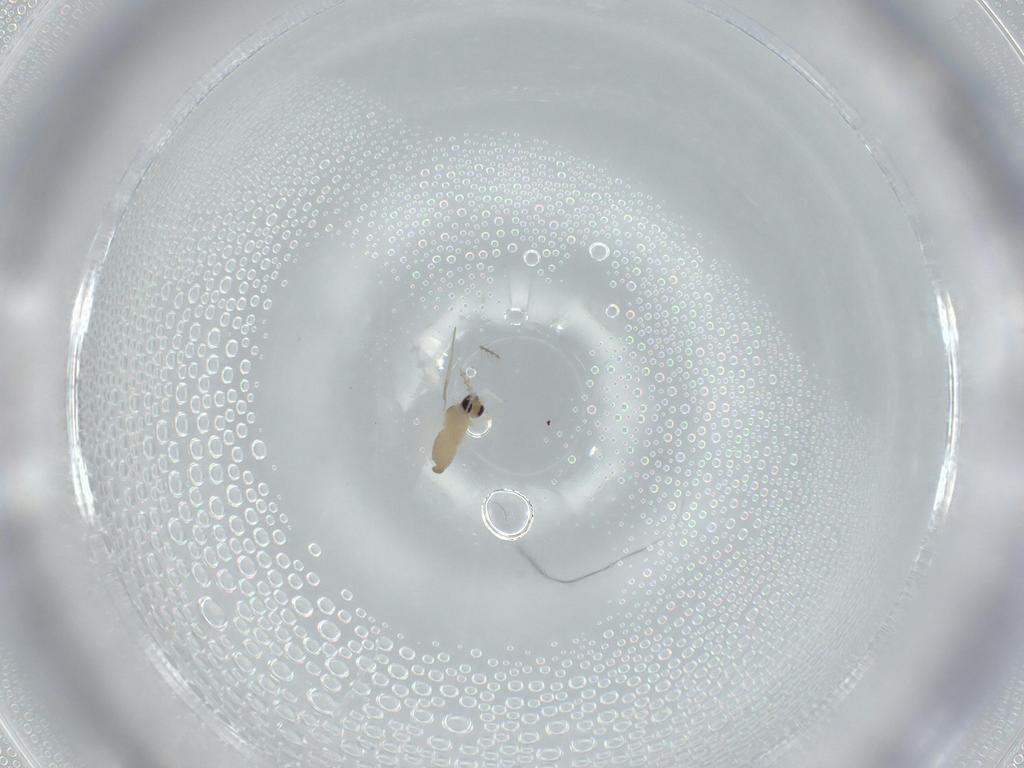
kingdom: Animalia
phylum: Arthropoda
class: Insecta
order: Diptera
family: Cecidomyiidae
